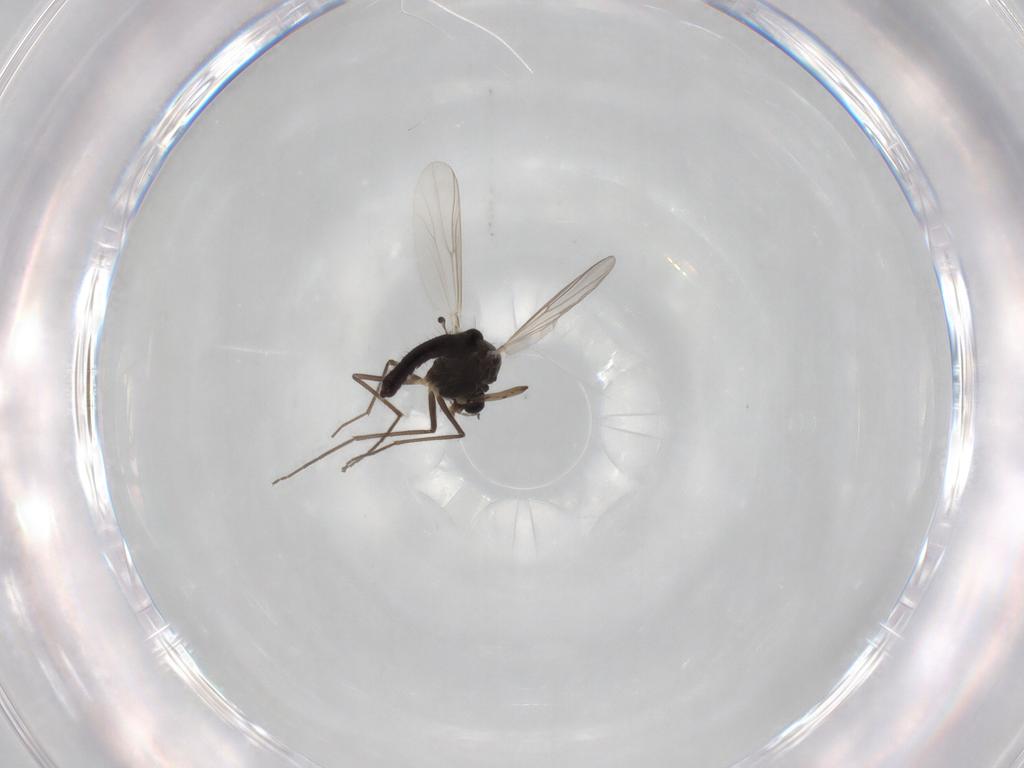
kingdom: Animalia
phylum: Arthropoda
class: Insecta
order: Diptera
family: Chironomidae
